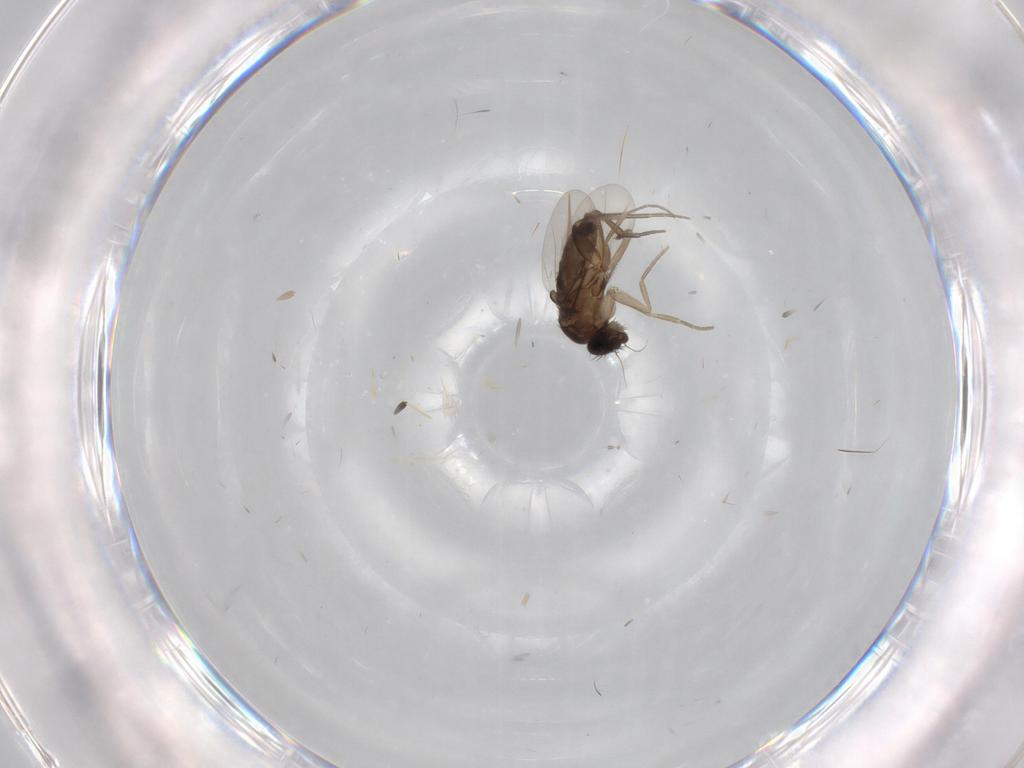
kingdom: Animalia
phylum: Arthropoda
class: Insecta
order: Diptera
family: Phoridae
